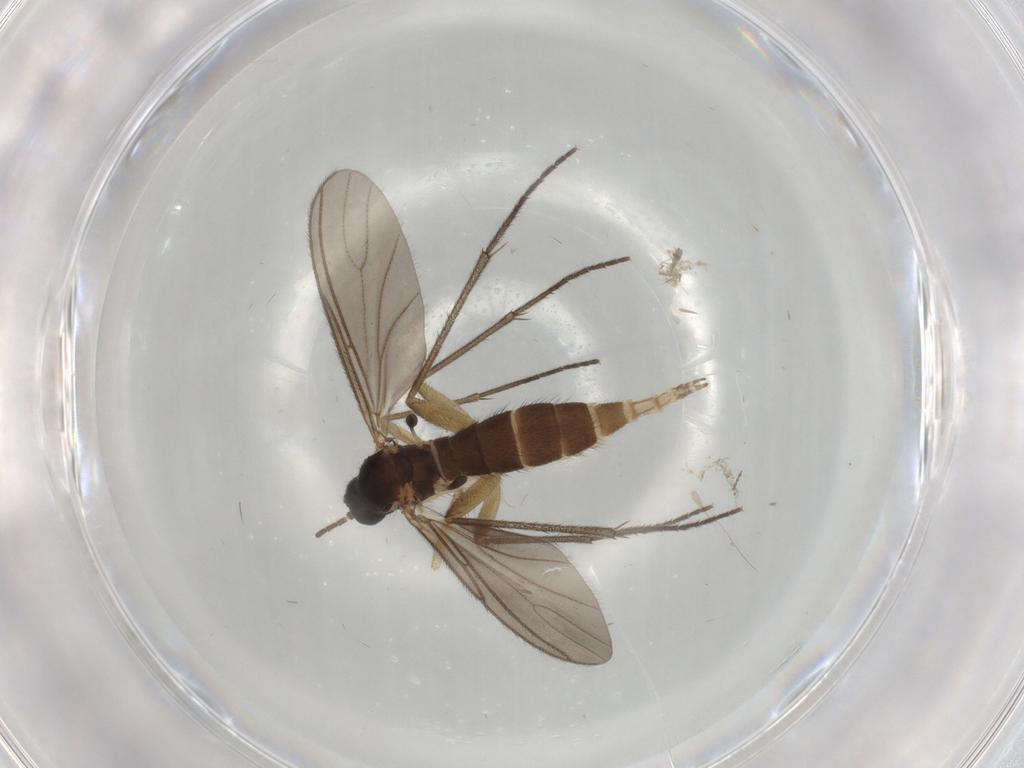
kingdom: Animalia
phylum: Arthropoda
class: Insecta
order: Diptera
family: Sciaridae
